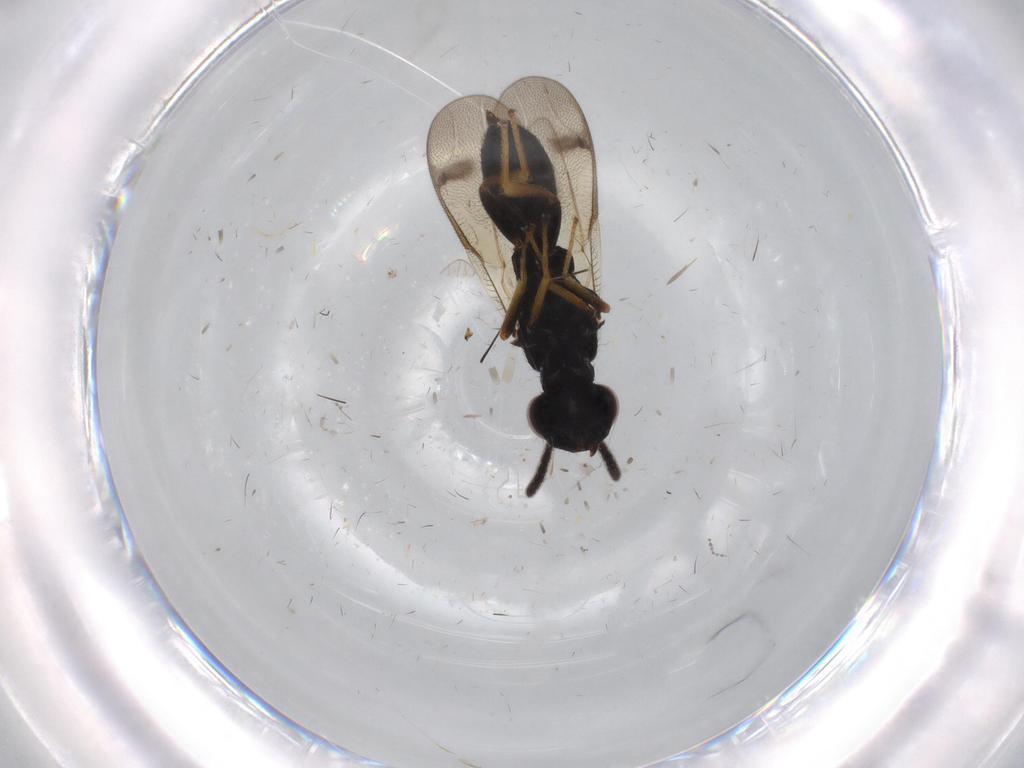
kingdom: Animalia
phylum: Arthropoda
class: Insecta
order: Hymenoptera
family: Pteromalidae
